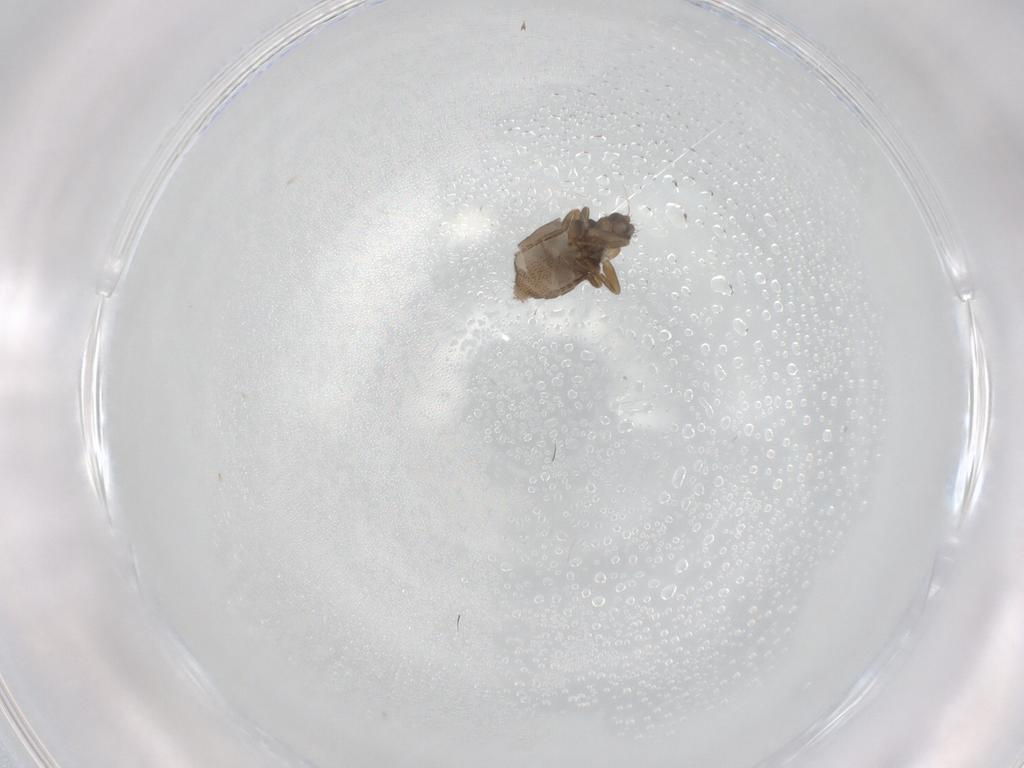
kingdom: Animalia
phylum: Arthropoda
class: Insecta
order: Diptera
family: Phoridae
